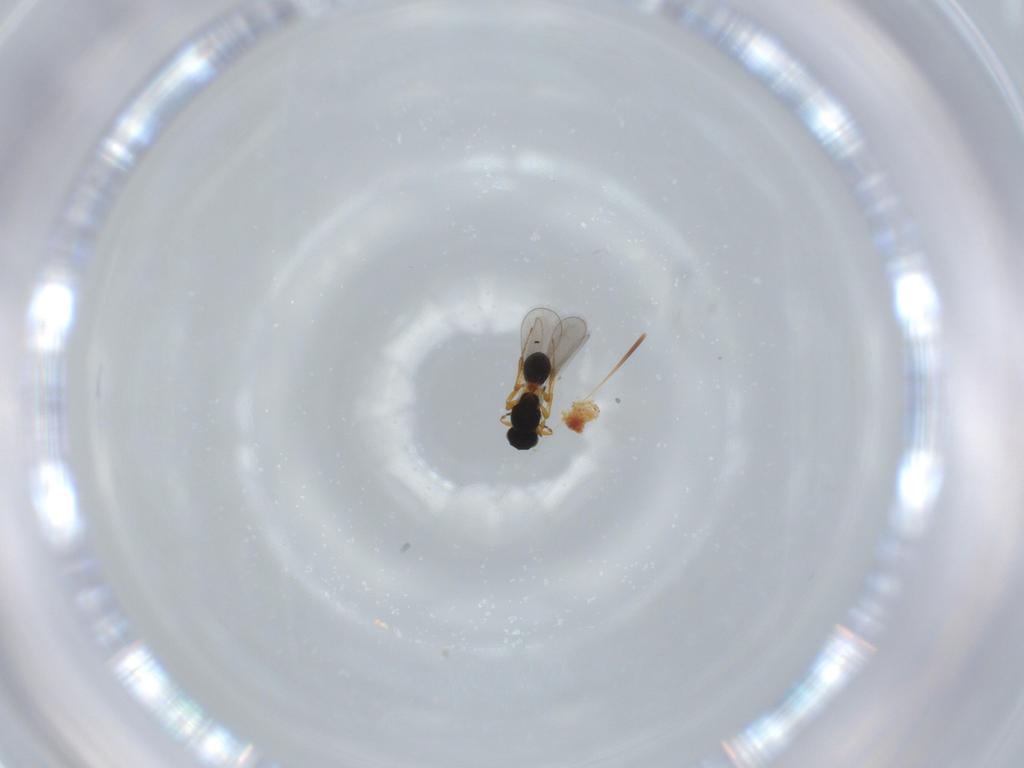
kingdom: Animalia
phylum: Arthropoda
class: Insecta
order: Hymenoptera
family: Platygastridae
